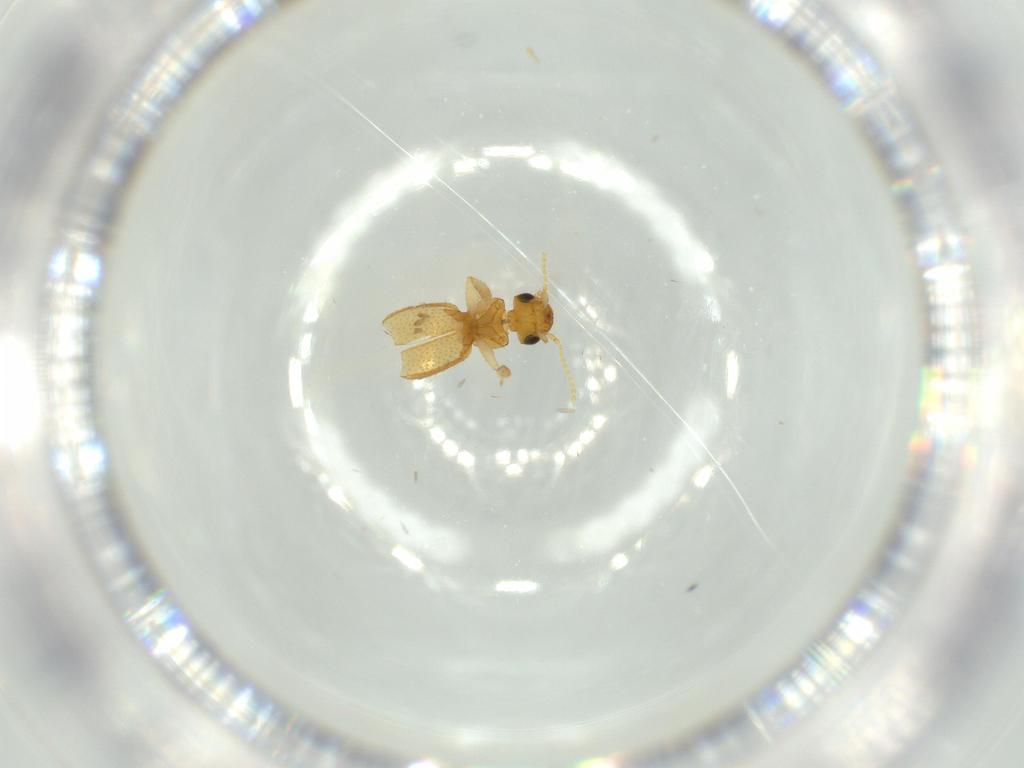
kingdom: Animalia
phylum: Arthropoda
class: Insecta
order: Coleoptera
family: Staphylinidae
